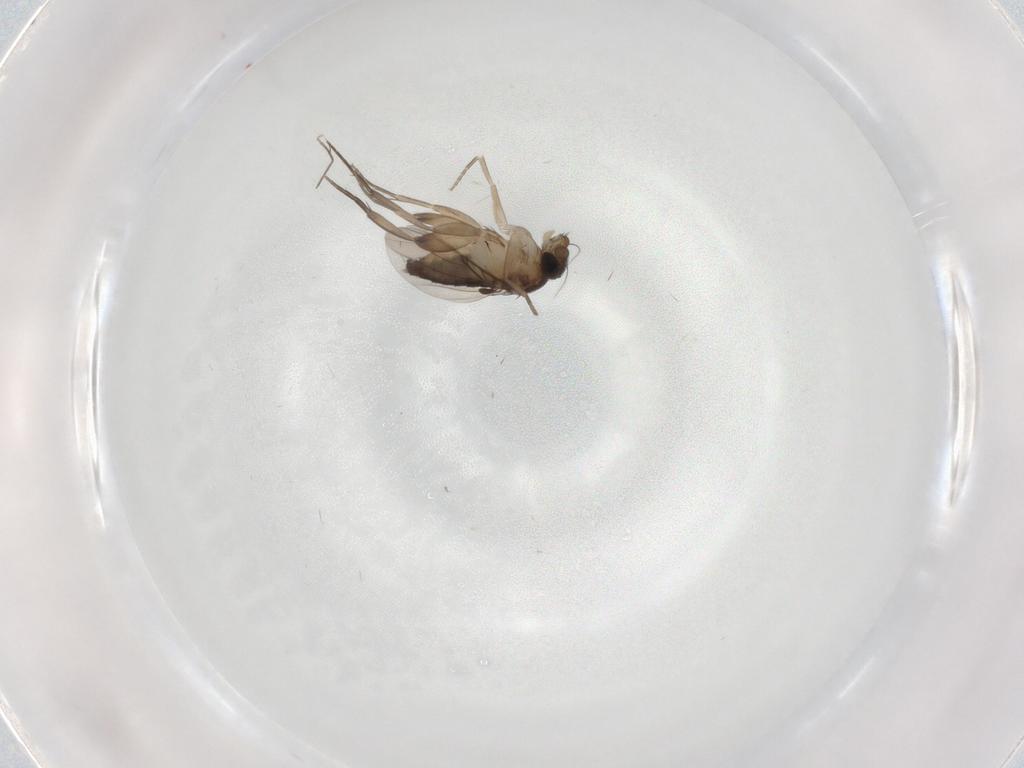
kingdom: Animalia
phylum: Arthropoda
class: Insecta
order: Diptera
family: Phoridae
